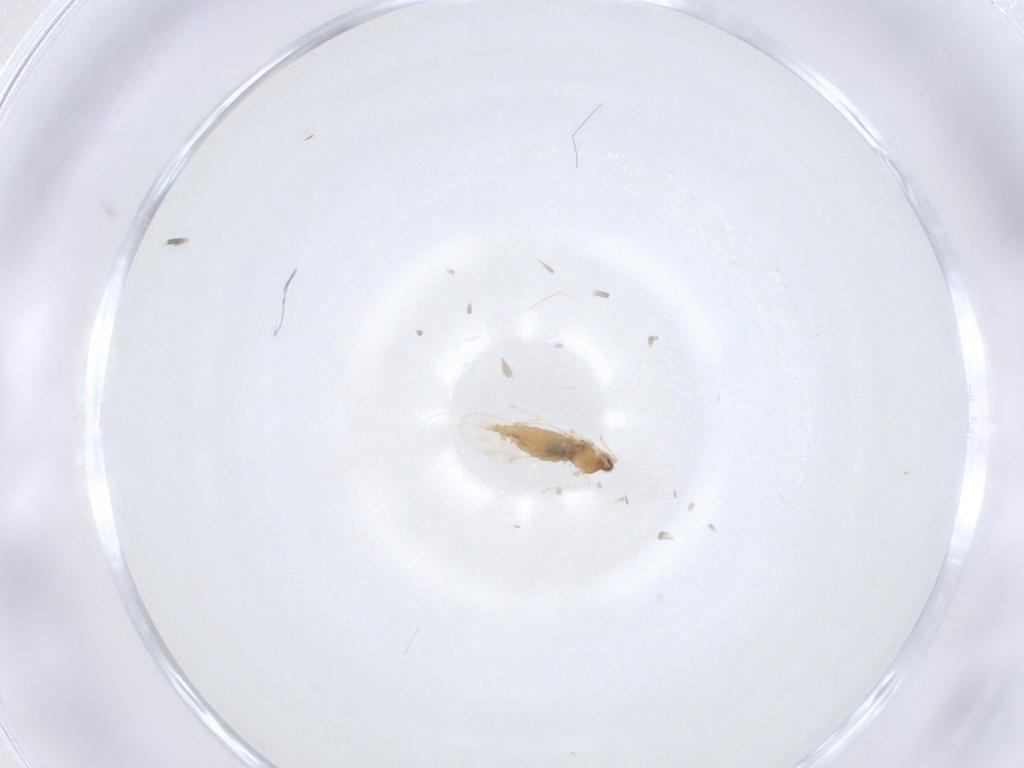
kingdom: Animalia
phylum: Arthropoda
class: Insecta
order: Diptera
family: Cecidomyiidae
